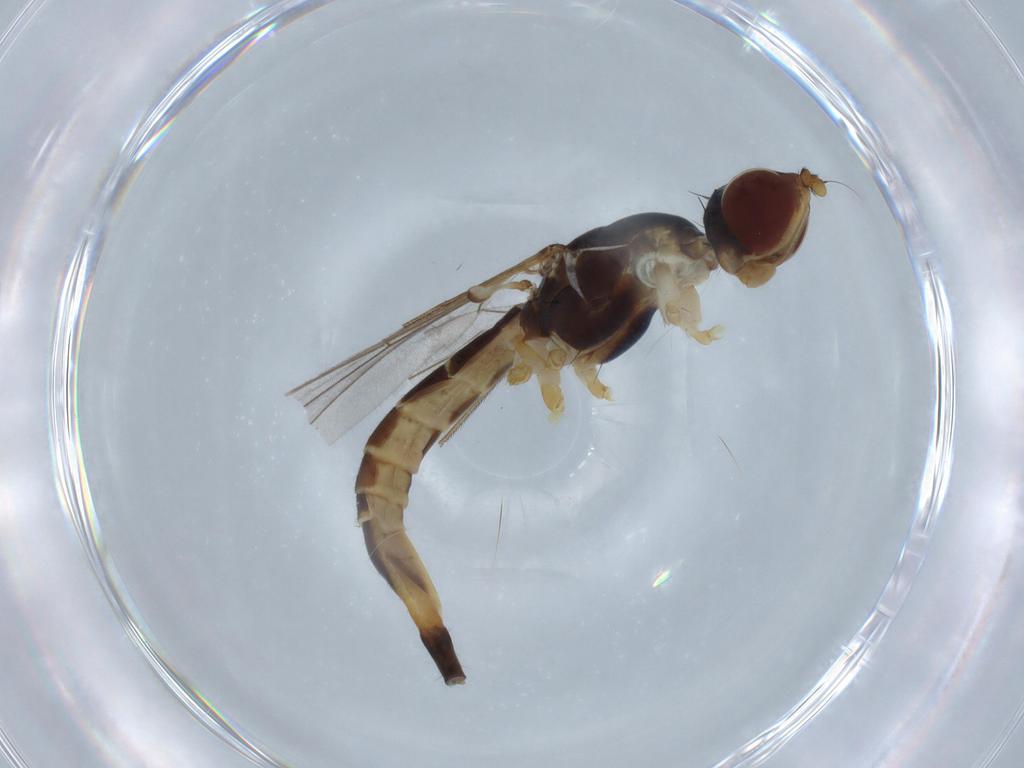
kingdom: Animalia
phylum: Arthropoda
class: Insecta
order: Diptera
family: Micropezidae
